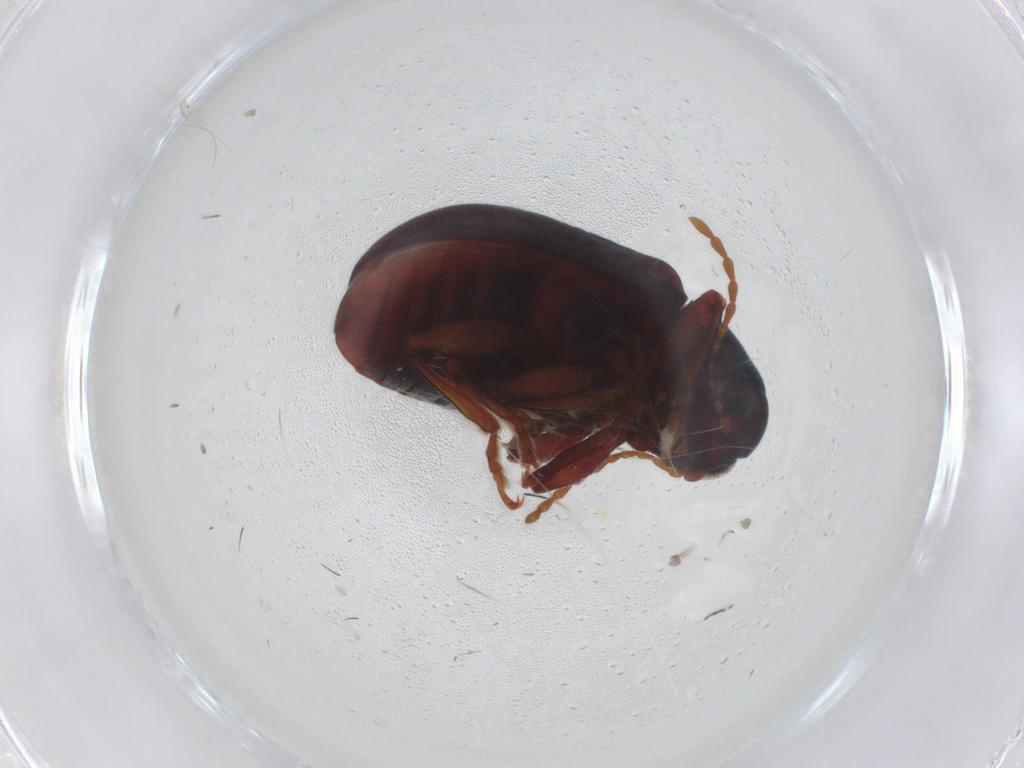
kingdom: Animalia
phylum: Arthropoda
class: Insecta
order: Coleoptera
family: Chrysomelidae
